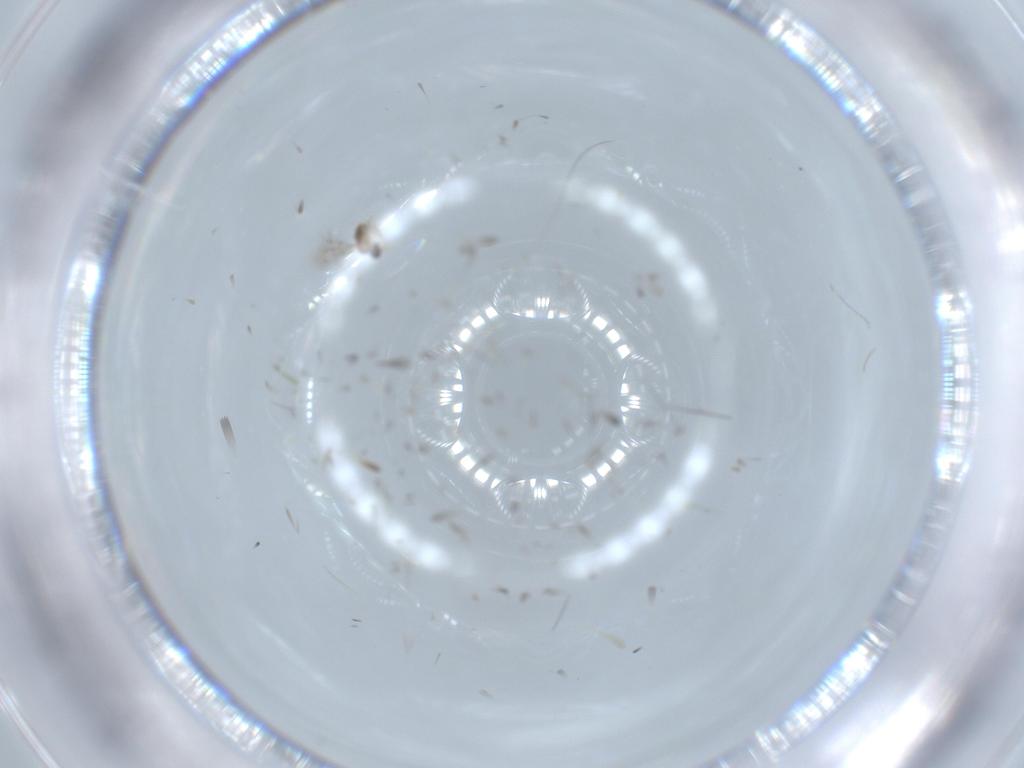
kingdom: Animalia
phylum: Arthropoda
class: Insecta
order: Diptera
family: Cecidomyiidae
